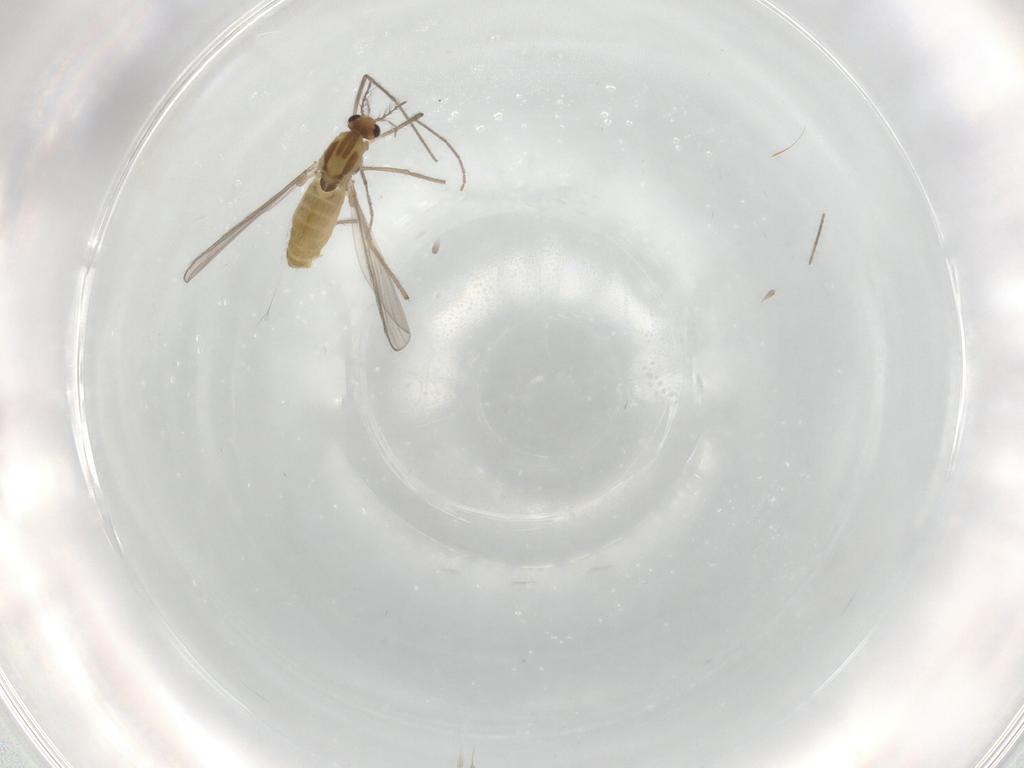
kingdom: Animalia
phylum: Arthropoda
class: Insecta
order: Diptera
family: Chironomidae
